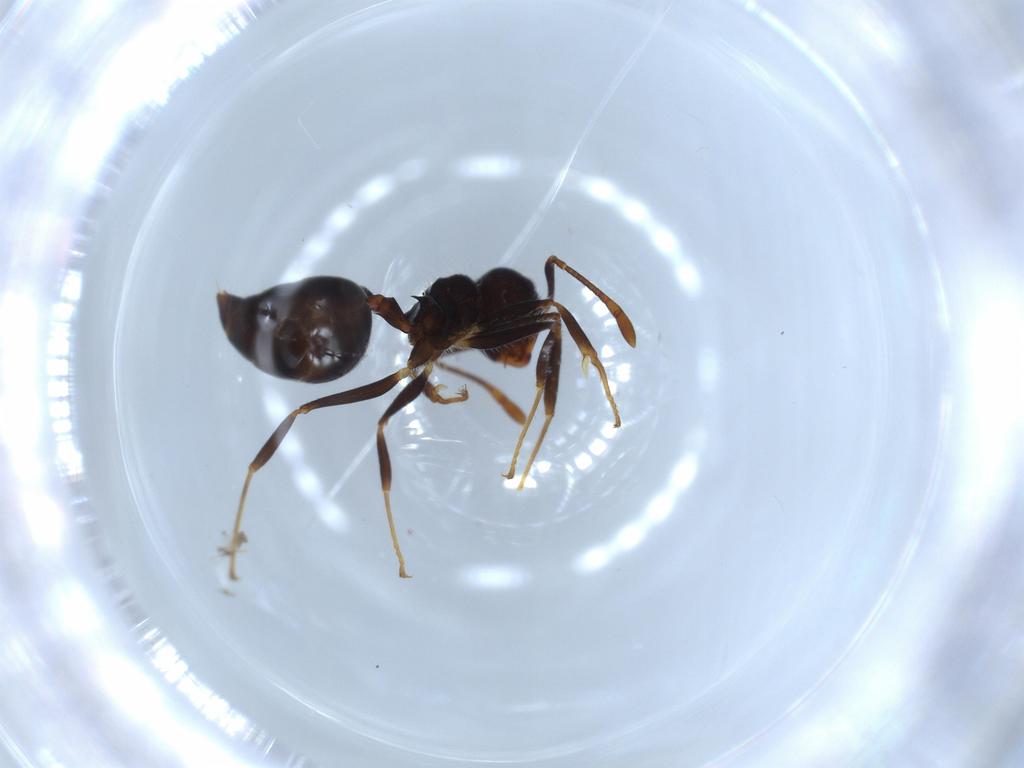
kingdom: Animalia
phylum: Arthropoda
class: Insecta
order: Hymenoptera
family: Formicidae
